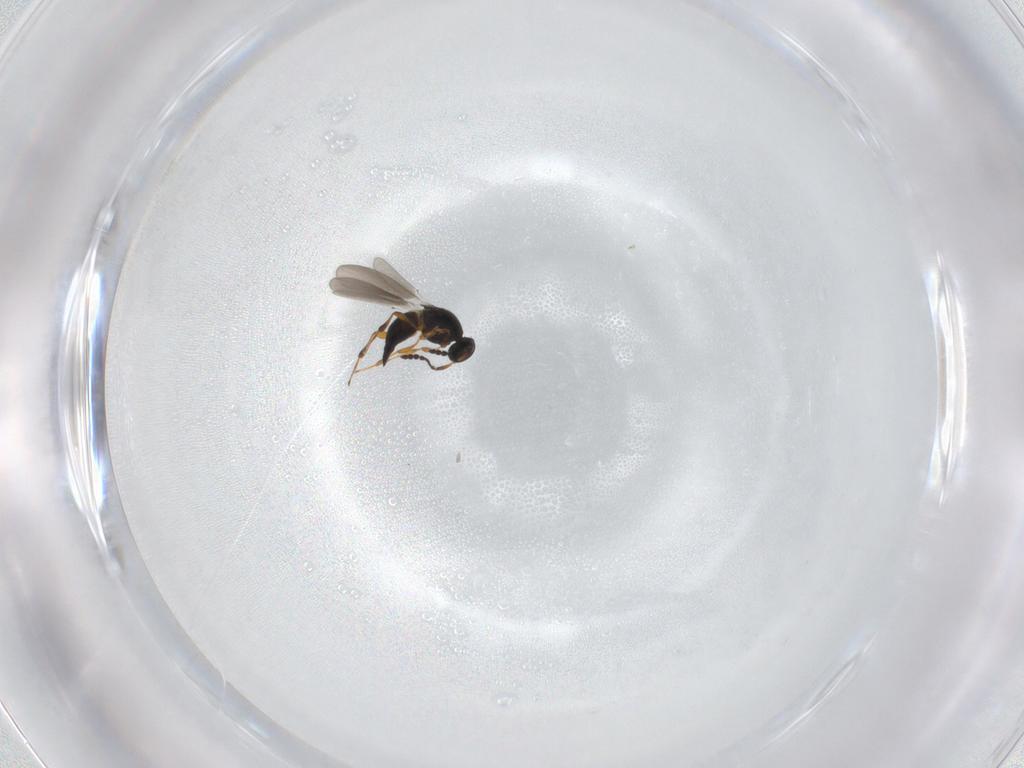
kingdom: Animalia
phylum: Arthropoda
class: Insecta
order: Hymenoptera
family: Platygastridae
